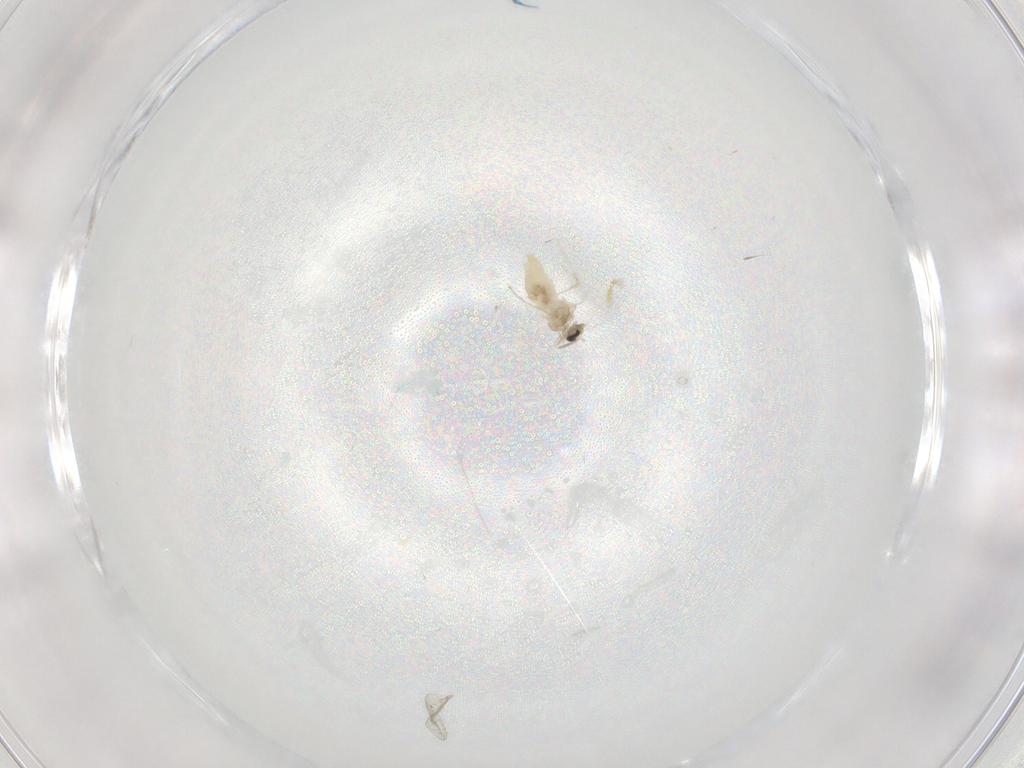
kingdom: Animalia
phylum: Arthropoda
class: Insecta
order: Diptera
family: Cecidomyiidae
